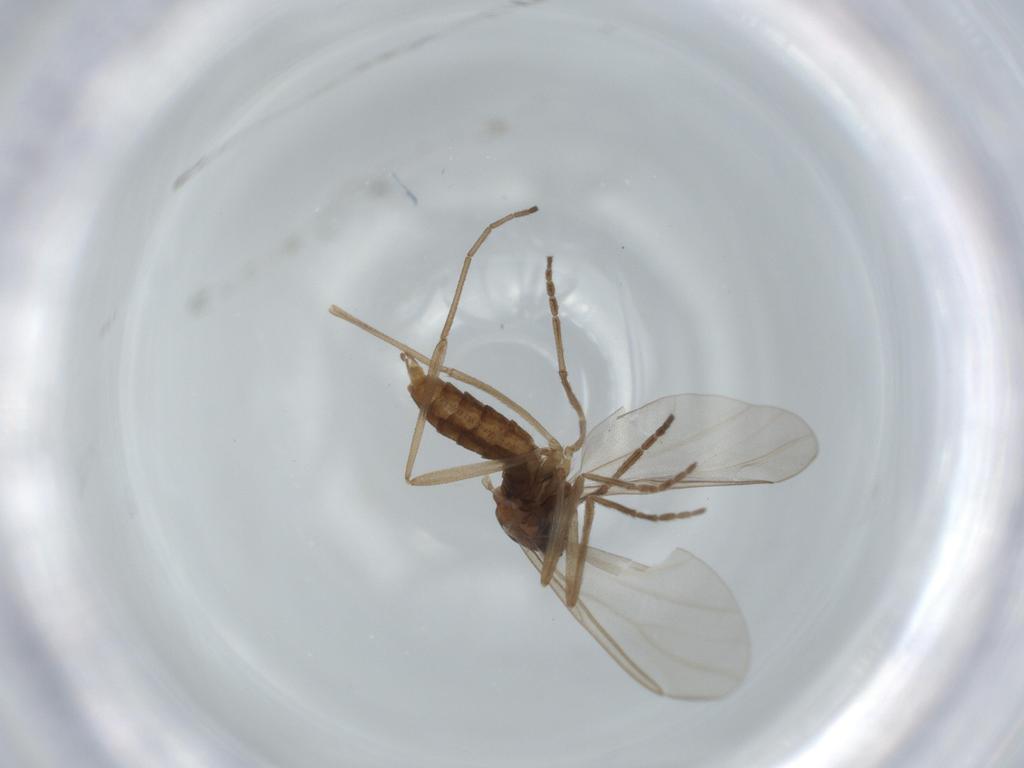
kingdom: Animalia
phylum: Arthropoda
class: Insecta
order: Diptera
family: Cecidomyiidae
